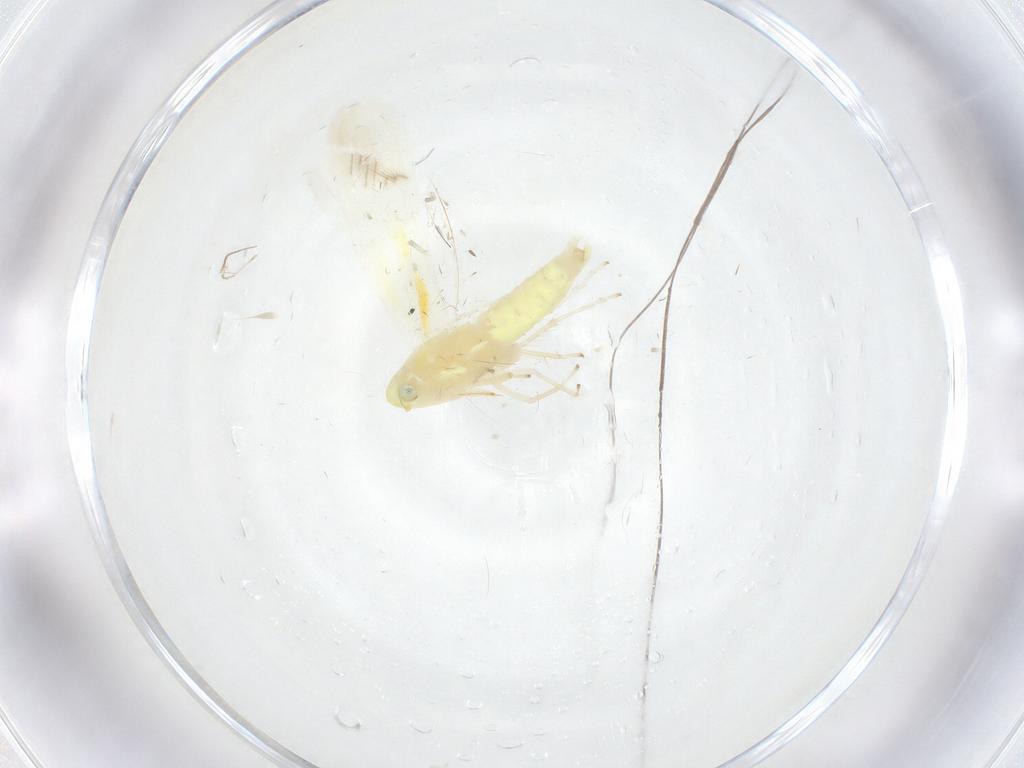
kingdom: Animalia
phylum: Arthropoda
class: Insecta
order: Hemiptera
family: Cicadellidae
